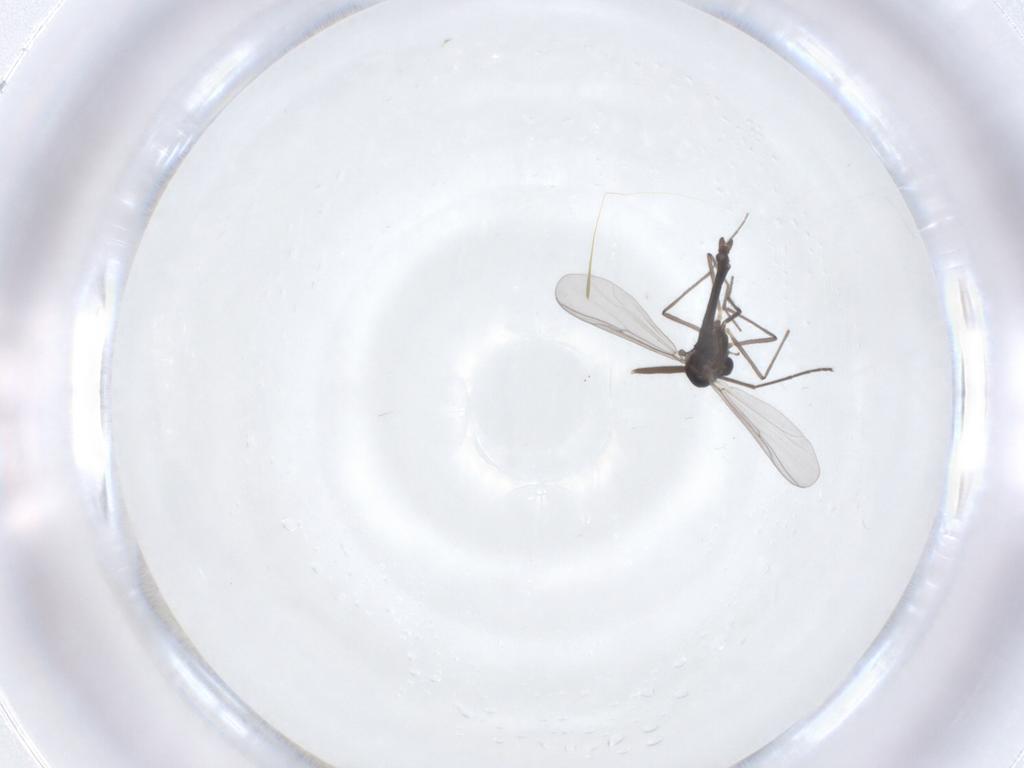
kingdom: Animalia
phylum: Arthropoda
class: Insecta
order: Diptera
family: Chironomidae
